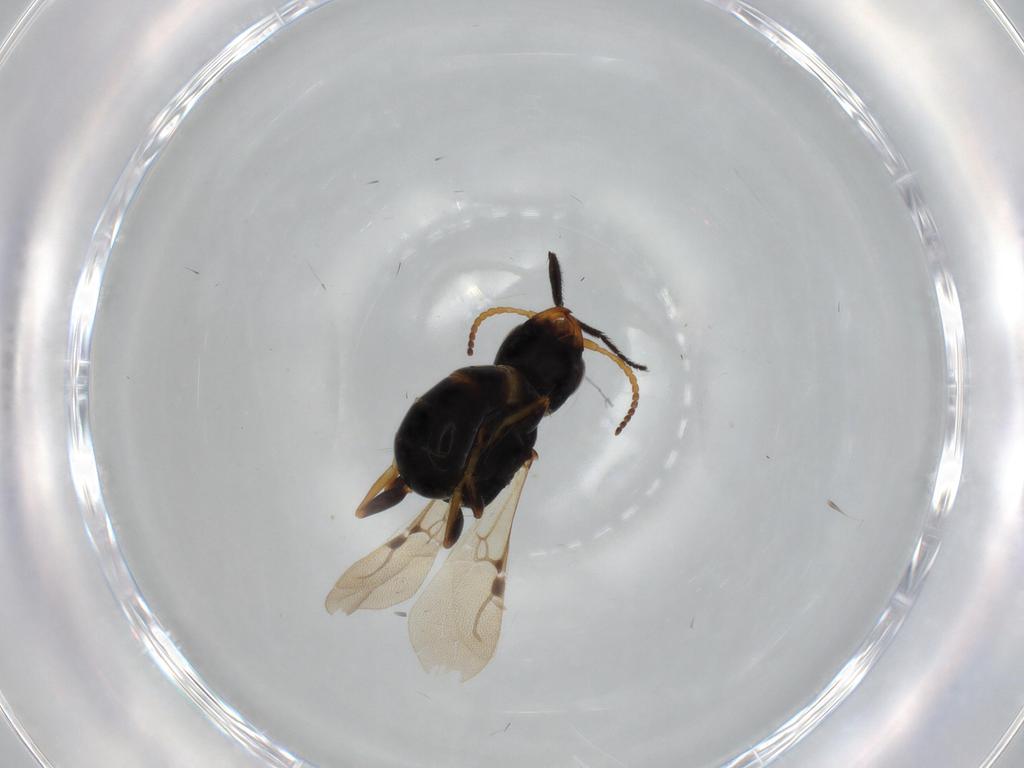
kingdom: Animalia
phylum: Arthropoda
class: Insecta
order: Hymenoptera
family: Bethylidae
